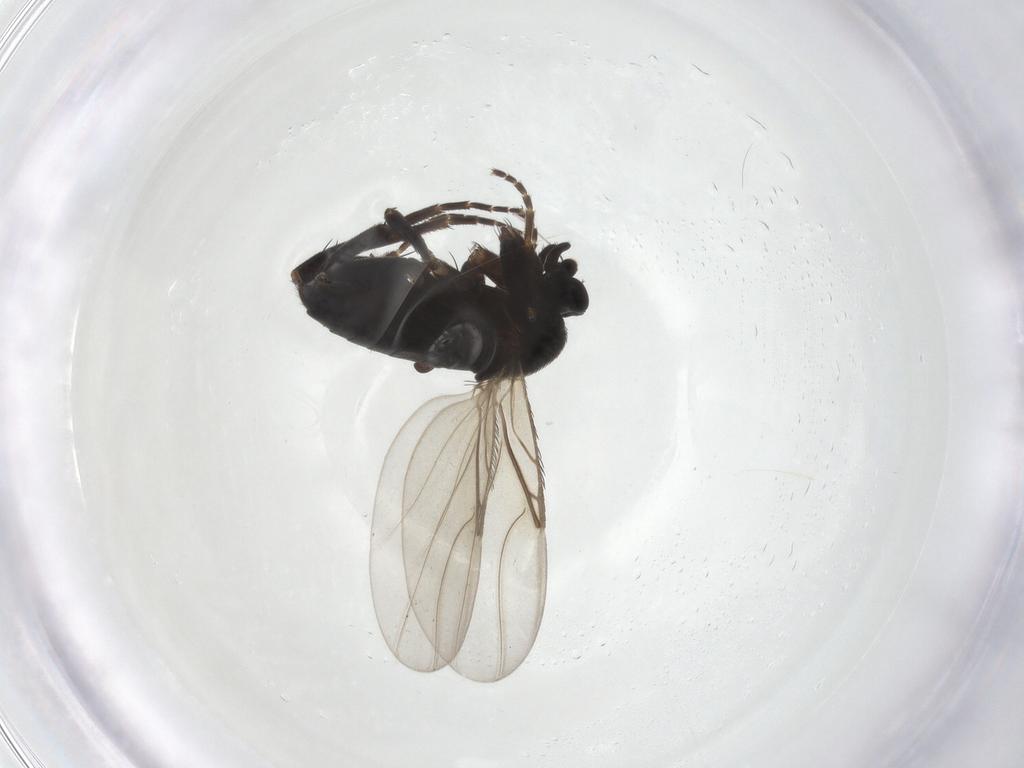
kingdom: Animalia
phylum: Arthropoda
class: Insecta
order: Diptera
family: Phoridae
